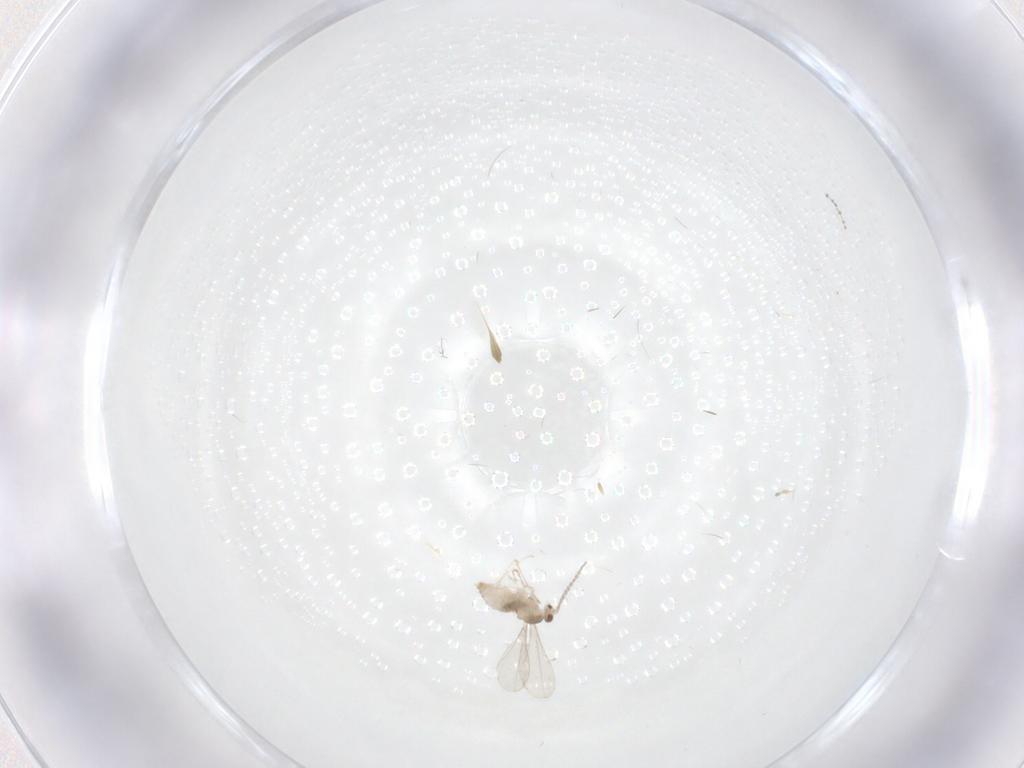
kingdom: Animalia
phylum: Arthropoda
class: Insecta
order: Diptera
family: Cecidomyiidae
